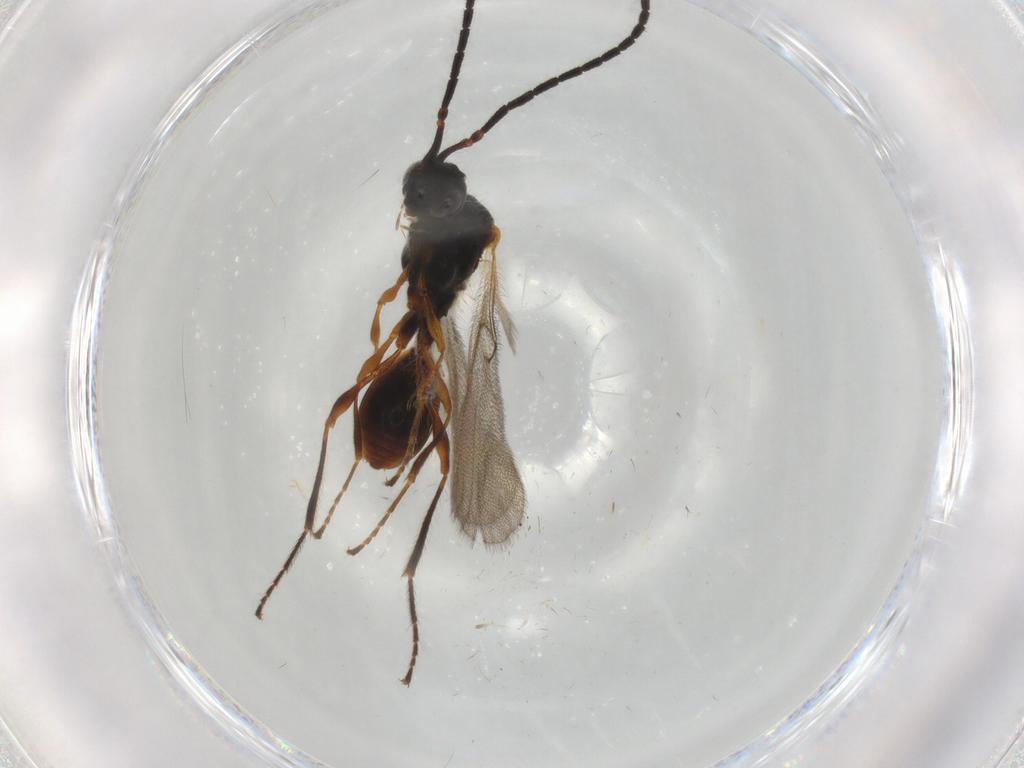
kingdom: Animalia
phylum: Arthropoda
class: Insecta
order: Hymenoptera
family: Diapriidae
